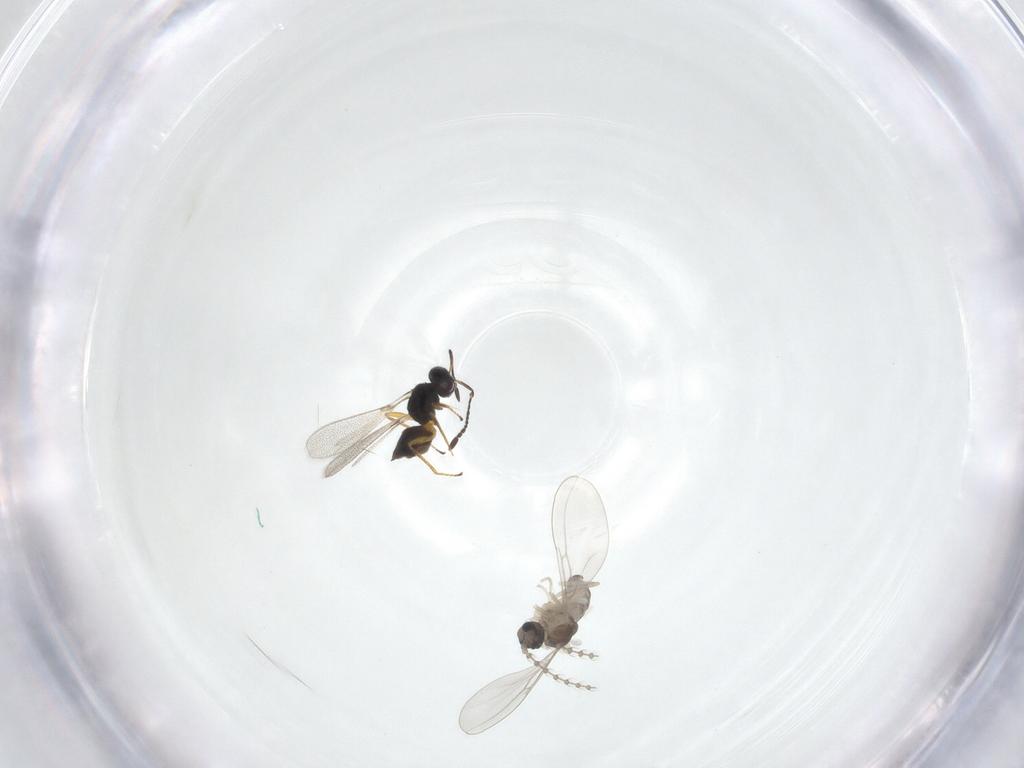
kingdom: Animalia
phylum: Arthropoda
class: Insecta
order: Diptera
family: Cecidomyiidae
